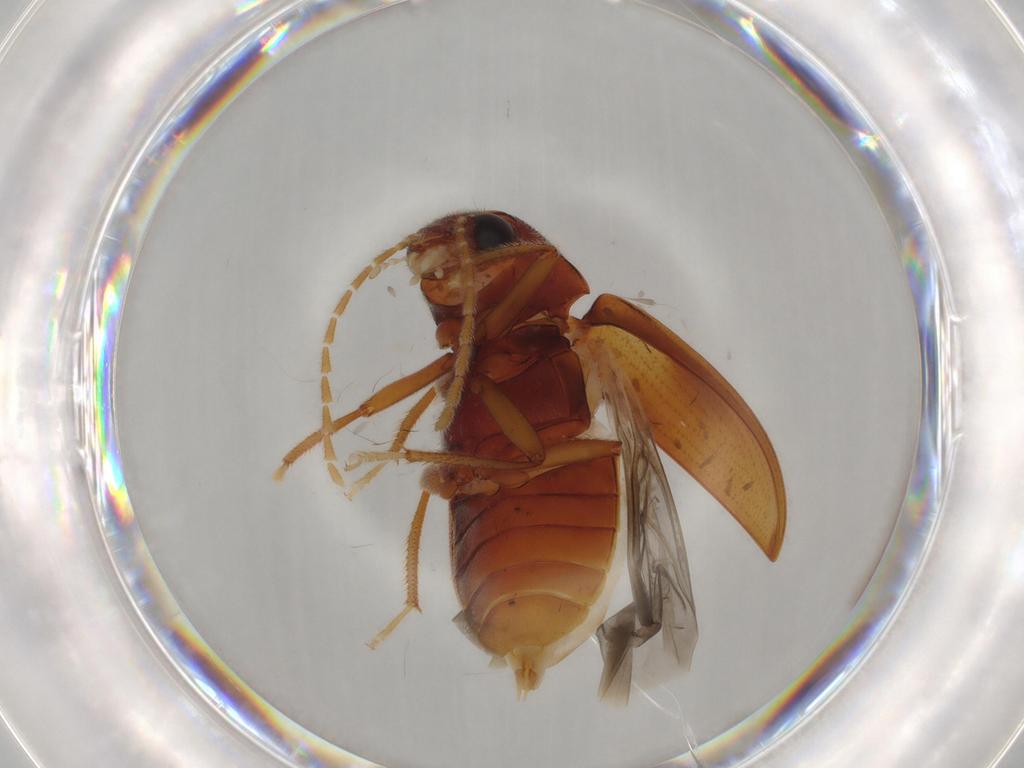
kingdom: Animalia
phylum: Arthropoda
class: Insecta
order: Coleoptera
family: Ptilodactylidae
